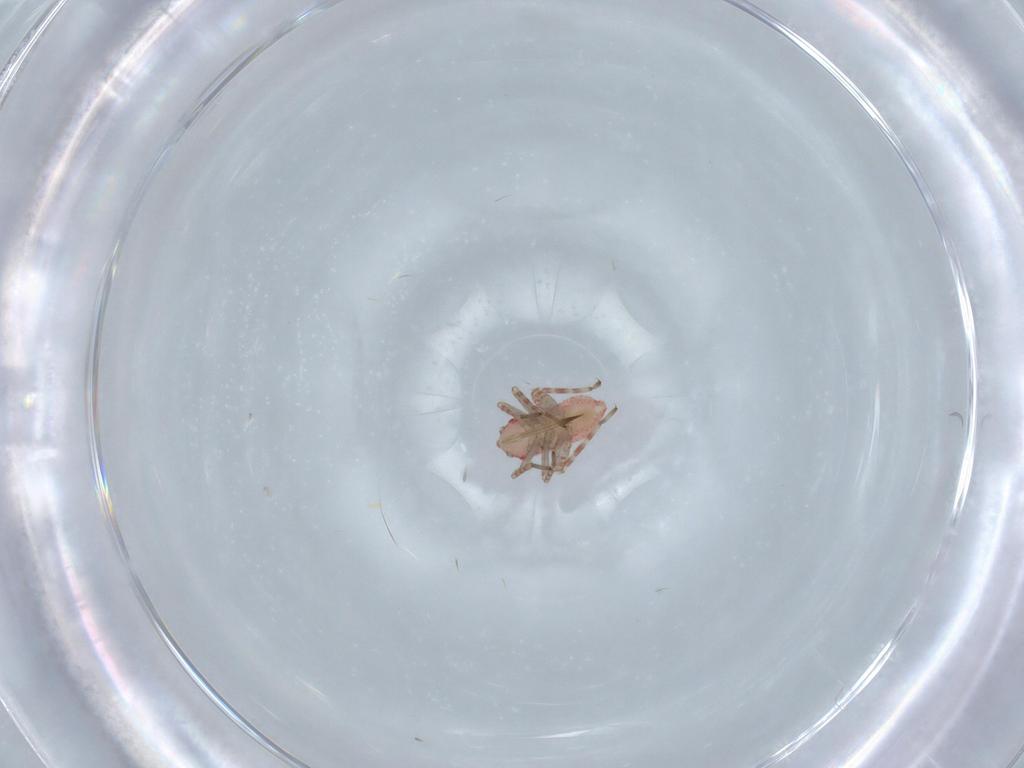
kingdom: Animalia
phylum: Arthropoda
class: Insecta
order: Hemiptera
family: Miridae
